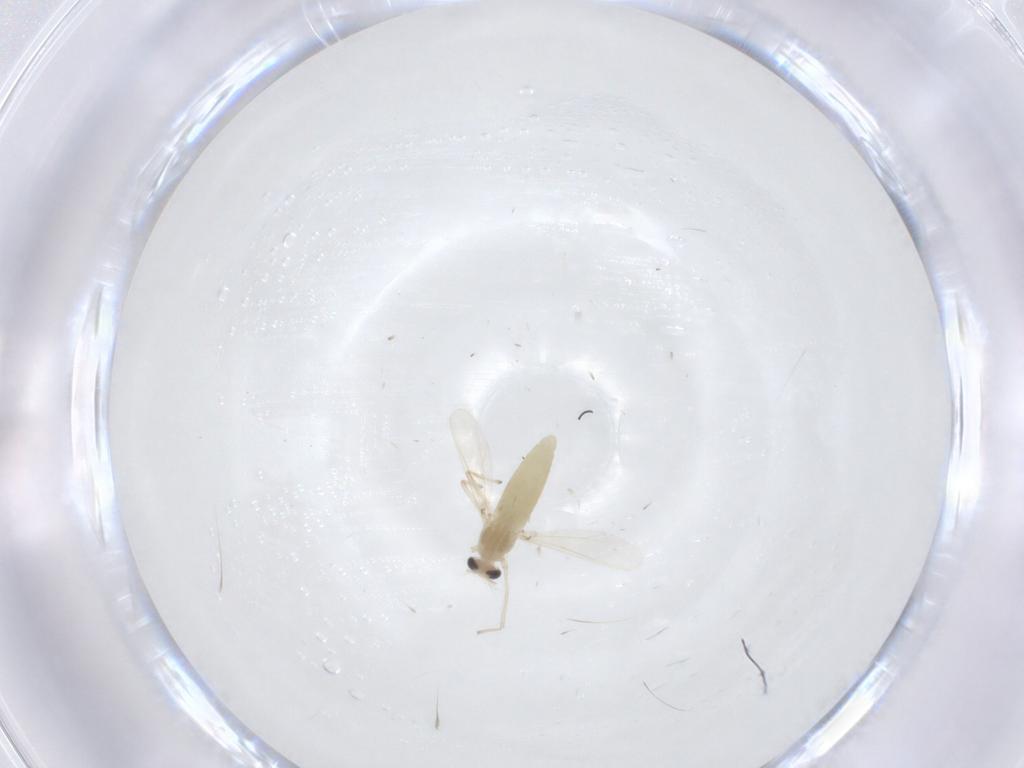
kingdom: Animalia
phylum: Arthropoda
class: Insecta
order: Diptera
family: Chironomidae
